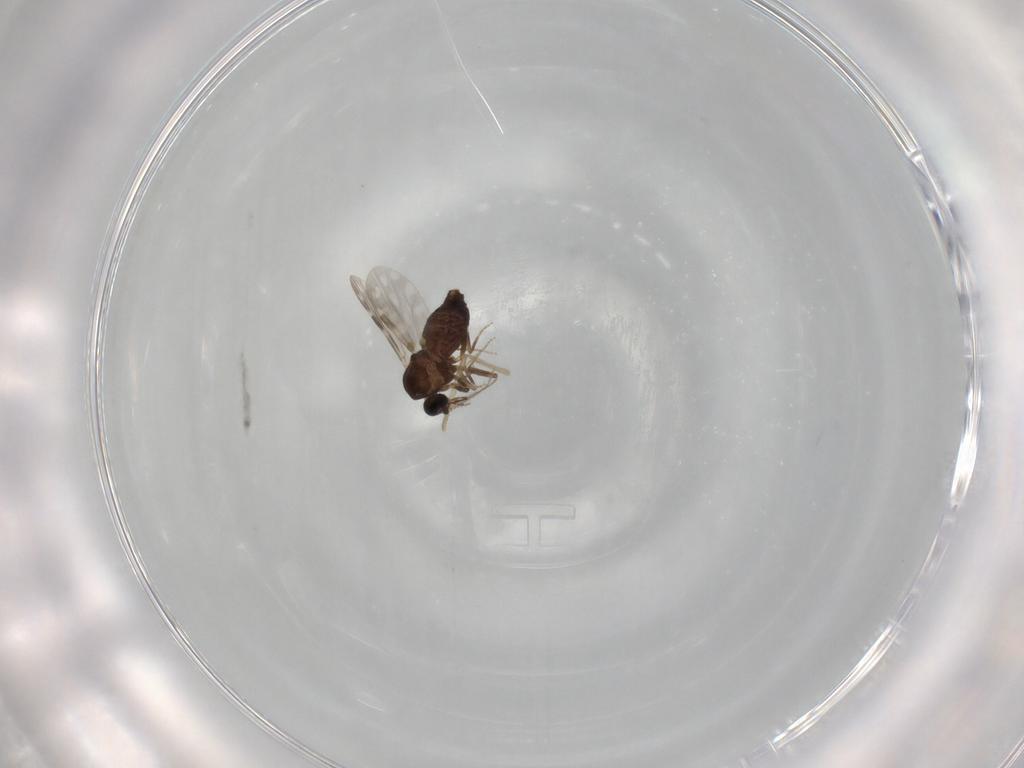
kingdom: Animalia
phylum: Arthropoda
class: Insecta
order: Diptera
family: Ceratopogonidae
